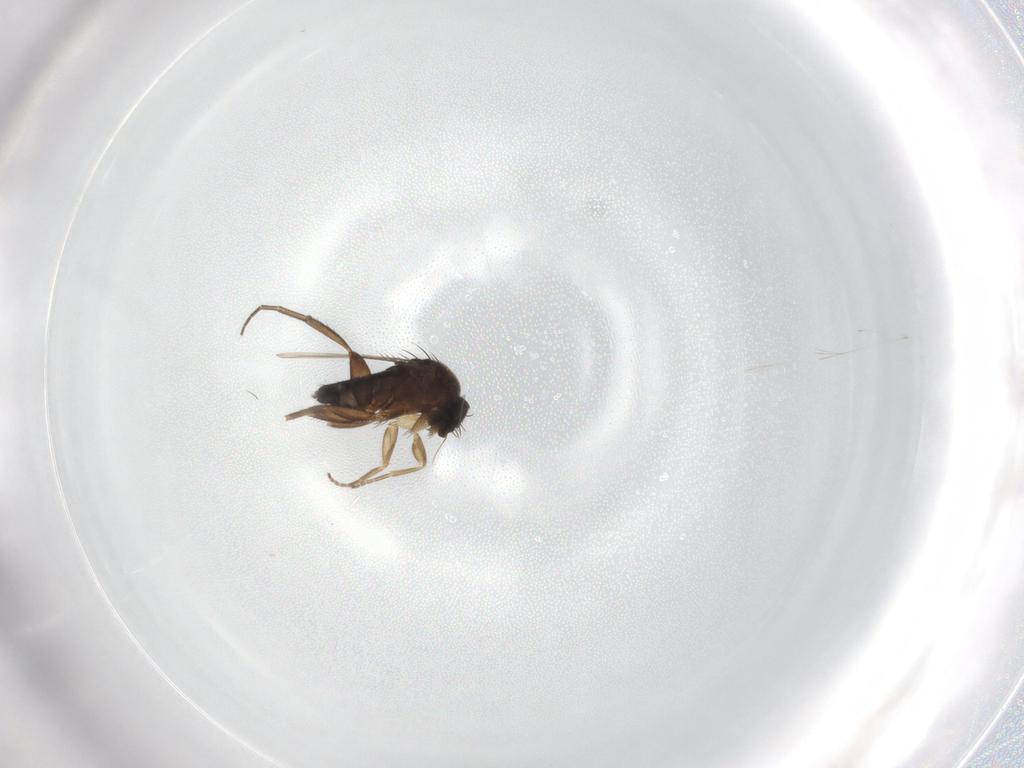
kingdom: Animalia
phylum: Arthropoda
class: Insecta
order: Diptera
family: Phoridae
